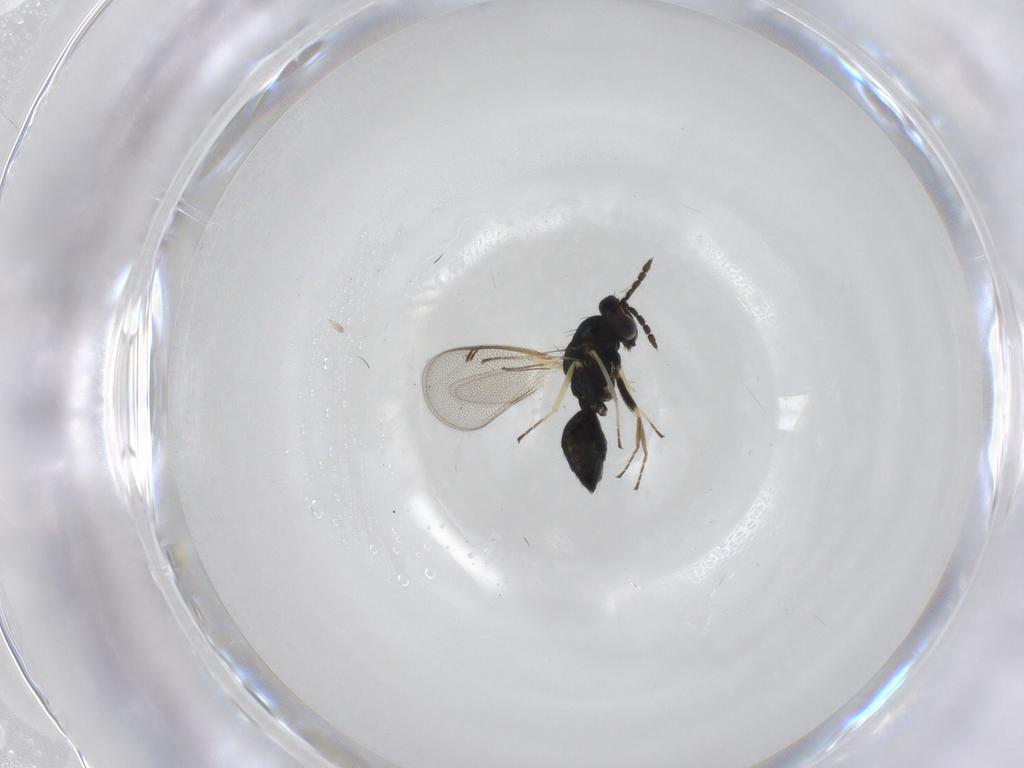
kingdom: Animalia
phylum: Arthropoda
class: Insecta
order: Hymenoptera
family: Eulophidae
